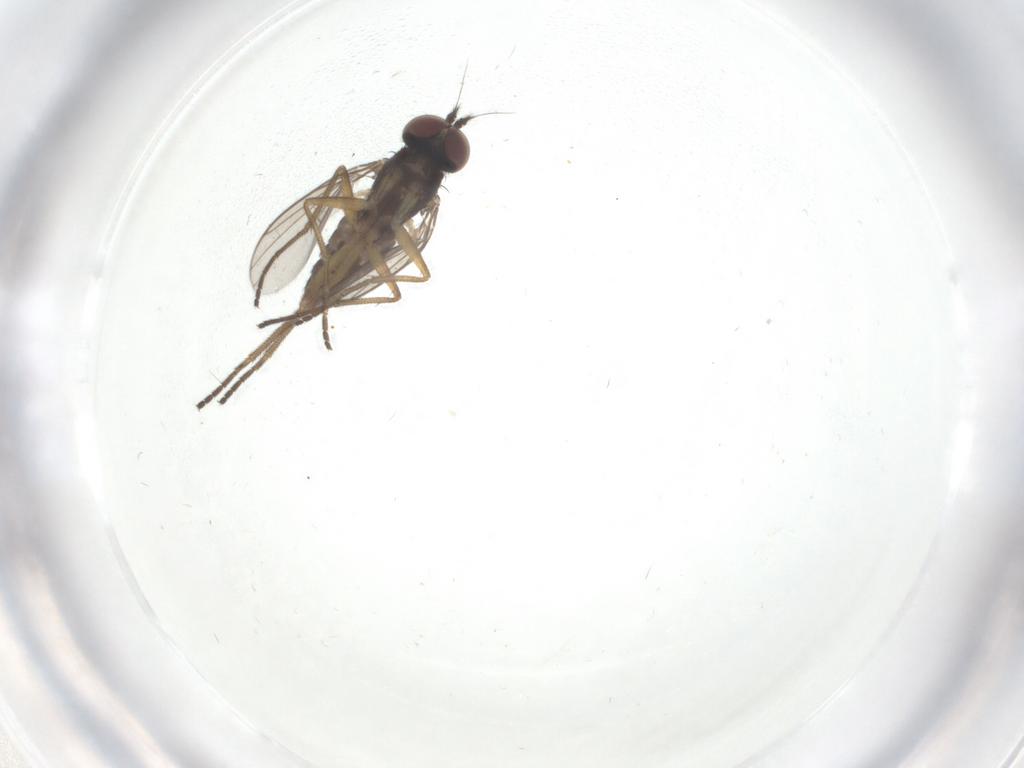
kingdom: Animalia
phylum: Arthropoda
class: Insecta
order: Diptera
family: Dolichopodidae
